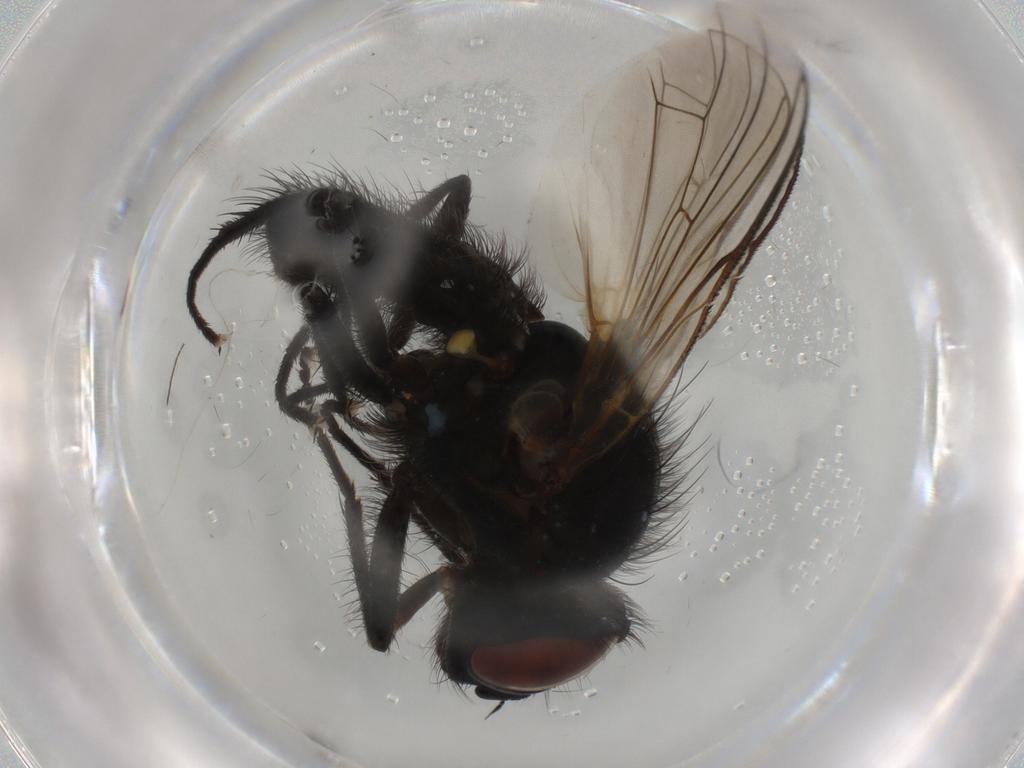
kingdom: Animalia
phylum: Arthropoda
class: Insecta
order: Diptera
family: Anthomyiidae
